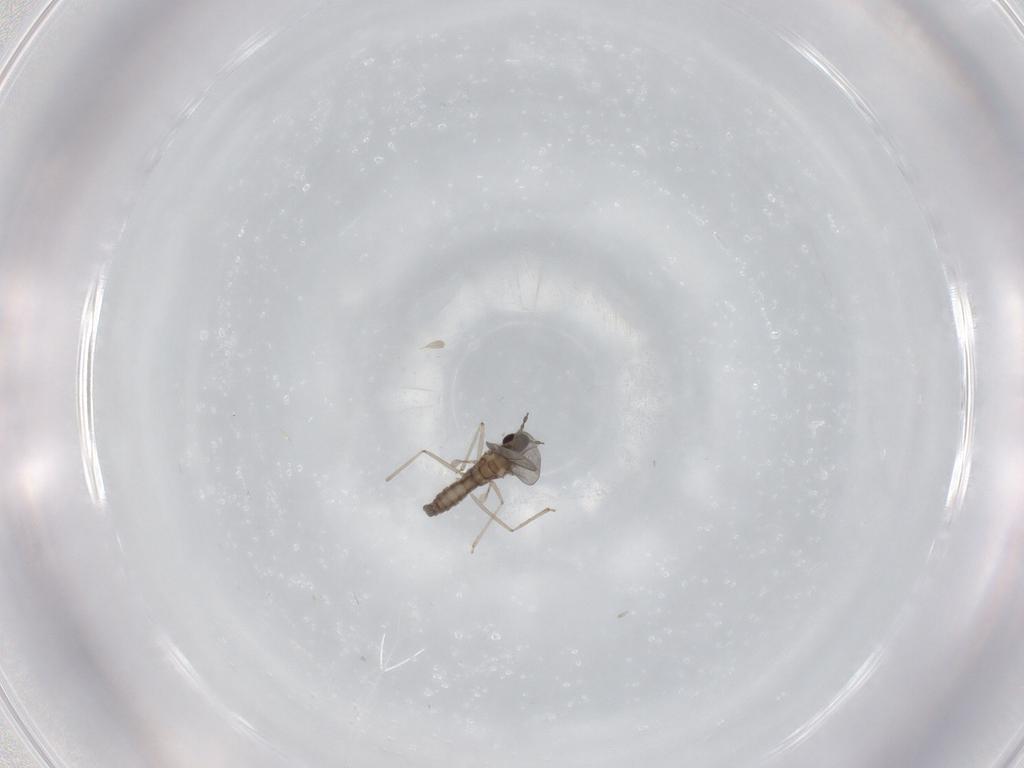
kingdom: Animalia
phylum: Arthropoda
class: Insecta
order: Diptera
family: Cecidomyiidae
